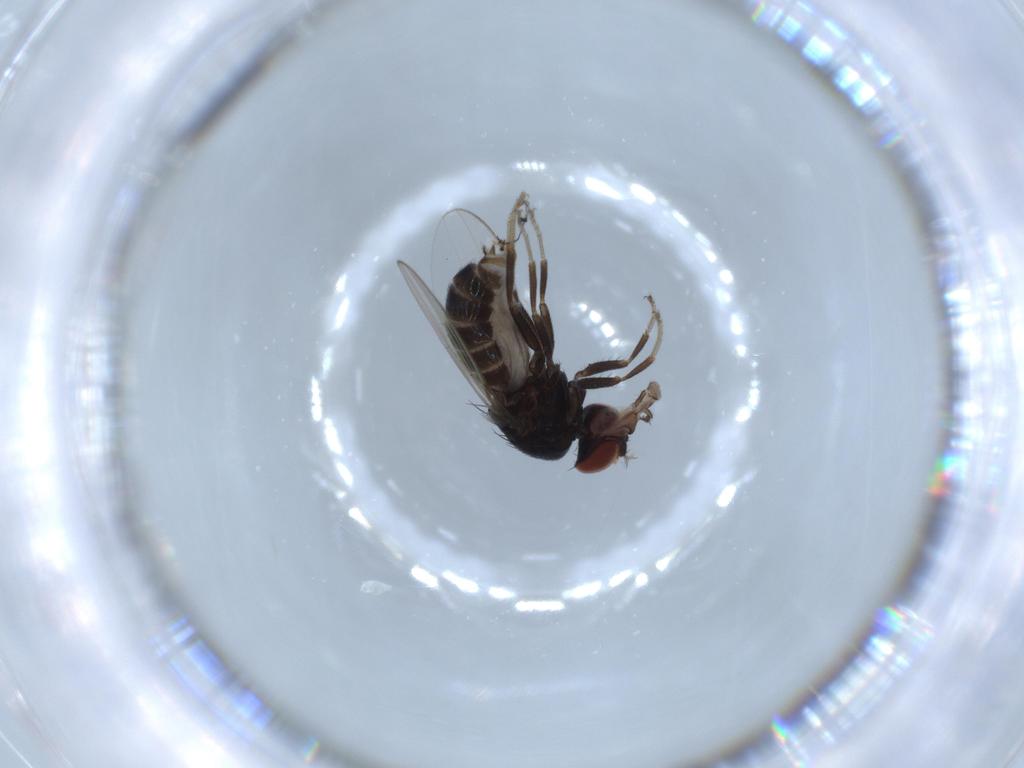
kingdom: Animalia
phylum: Arthropoda
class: Insecta
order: Diptera
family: Drosophilidae
